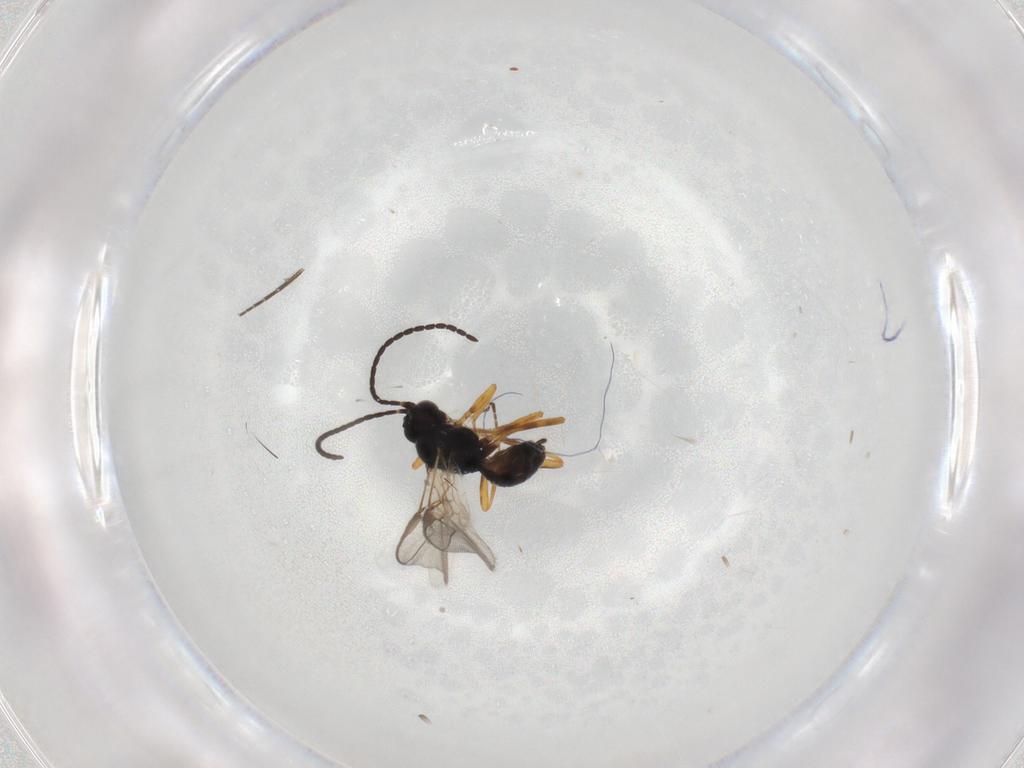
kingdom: Animalia
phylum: Arthropoda
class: Insecta
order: Hymenoptera
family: Braconidae
